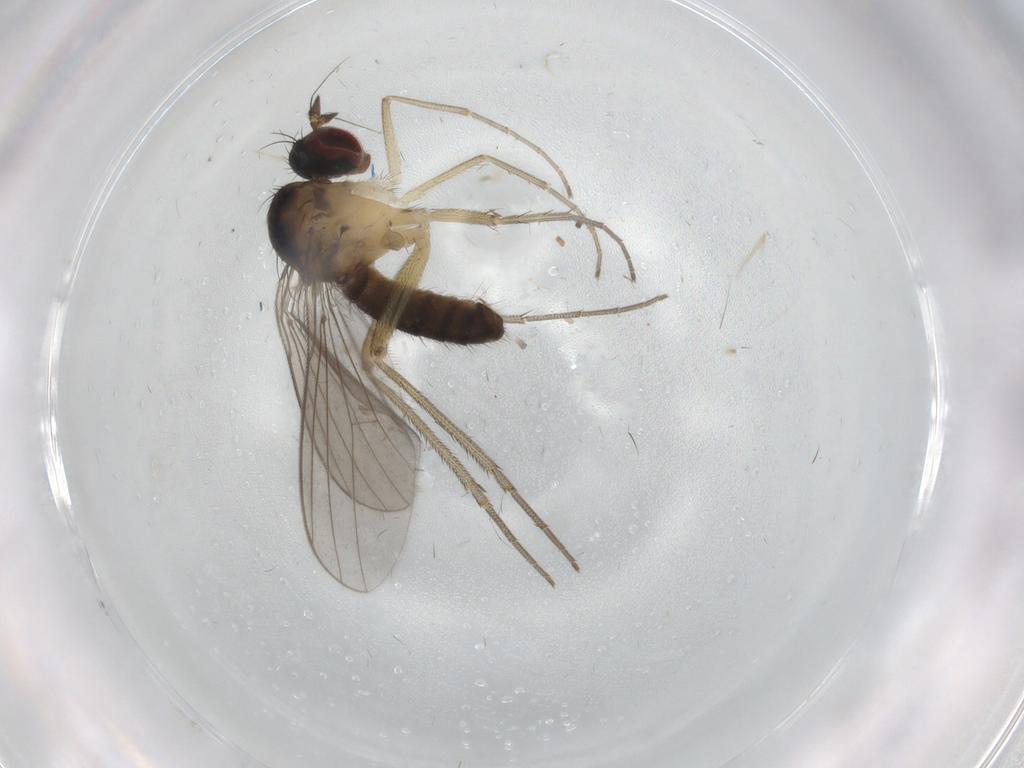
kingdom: Animalia
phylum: Arthropoda
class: Insecta
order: Diptera
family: Dolichopodidae
